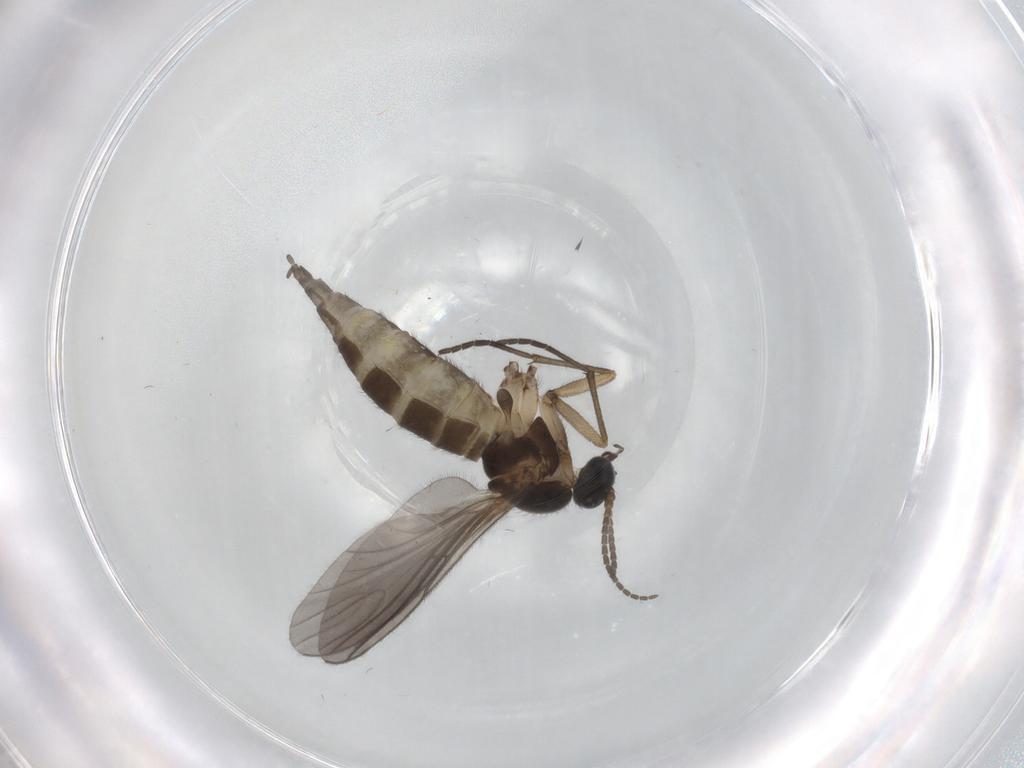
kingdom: Animalia
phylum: Arthropoda
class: Insecta
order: Diptera
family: Sciaridae
